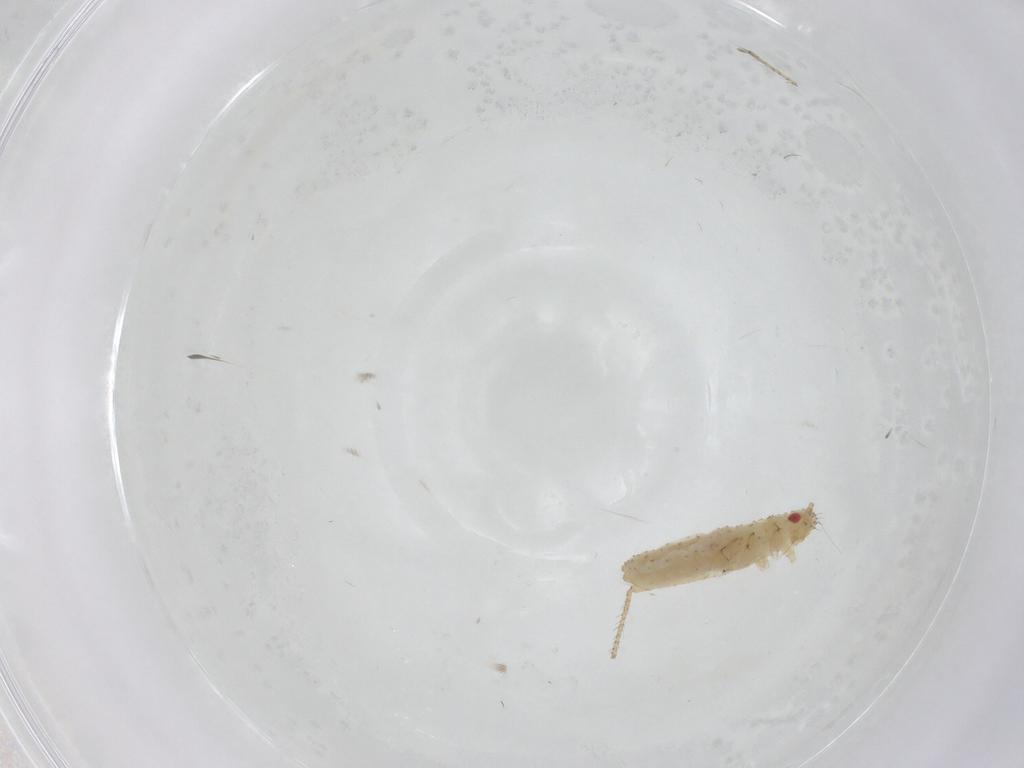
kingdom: Animalia
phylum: Arthropoda
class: Insecta
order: Hemiptera
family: Aphididae
